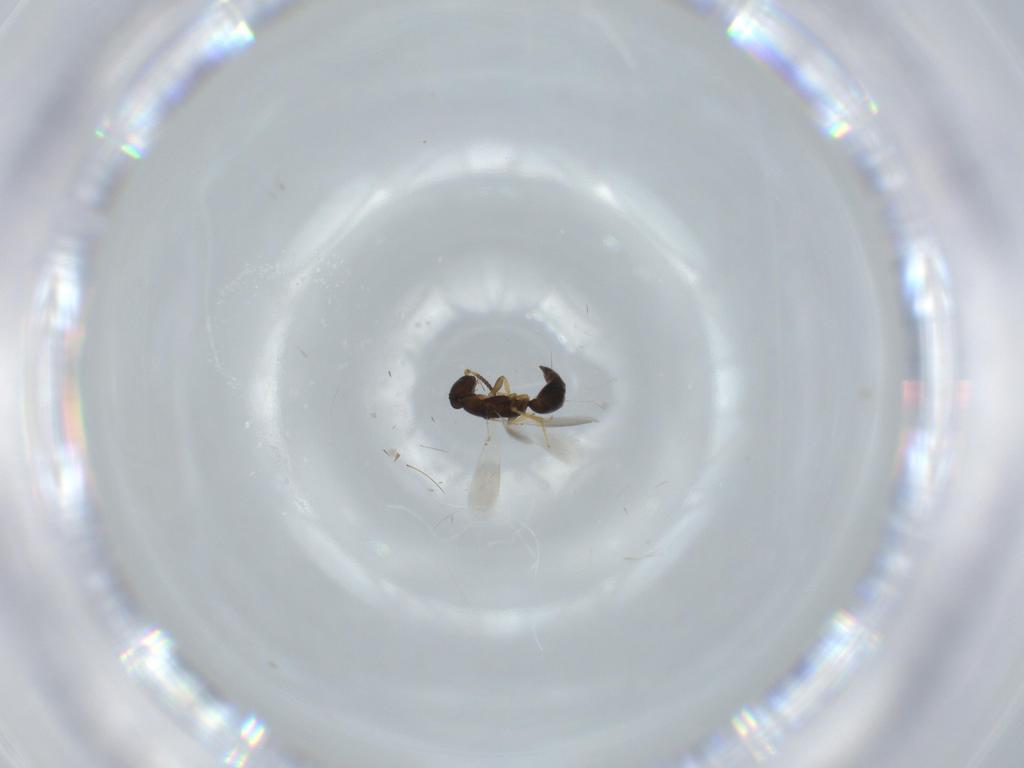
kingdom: Animalia
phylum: Arthropoda
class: Insecta
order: Hymenoptera
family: Bethylidae
